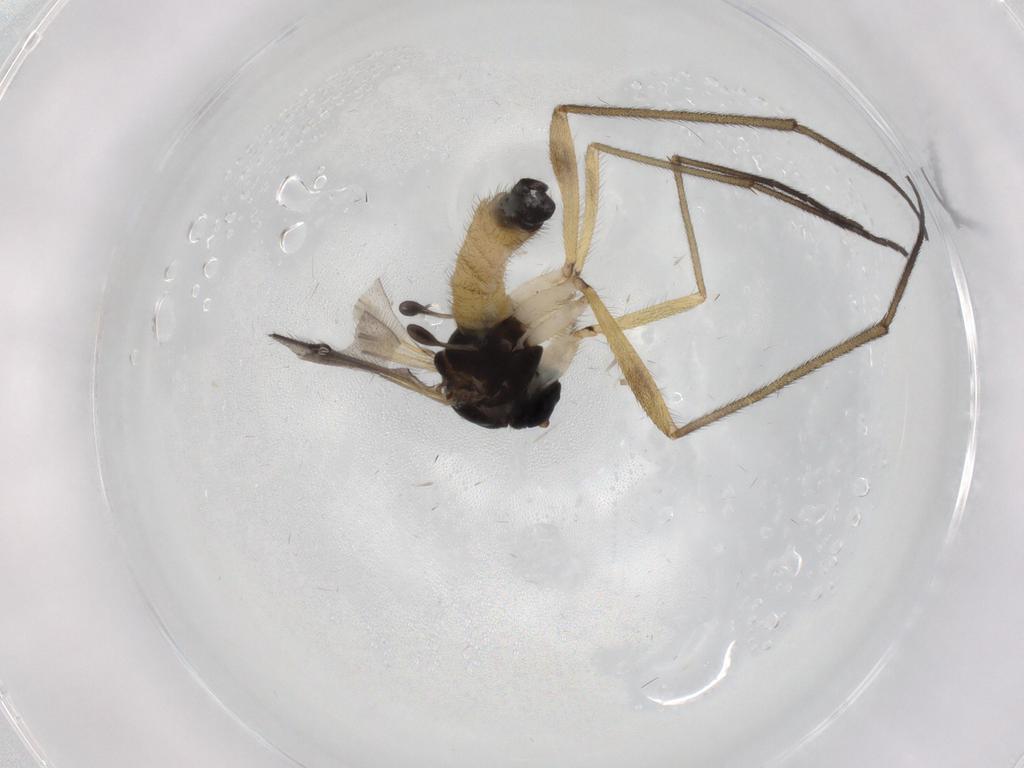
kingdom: Animalia
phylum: Arthropoda
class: Insecta
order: Diptera
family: Sciaridae
